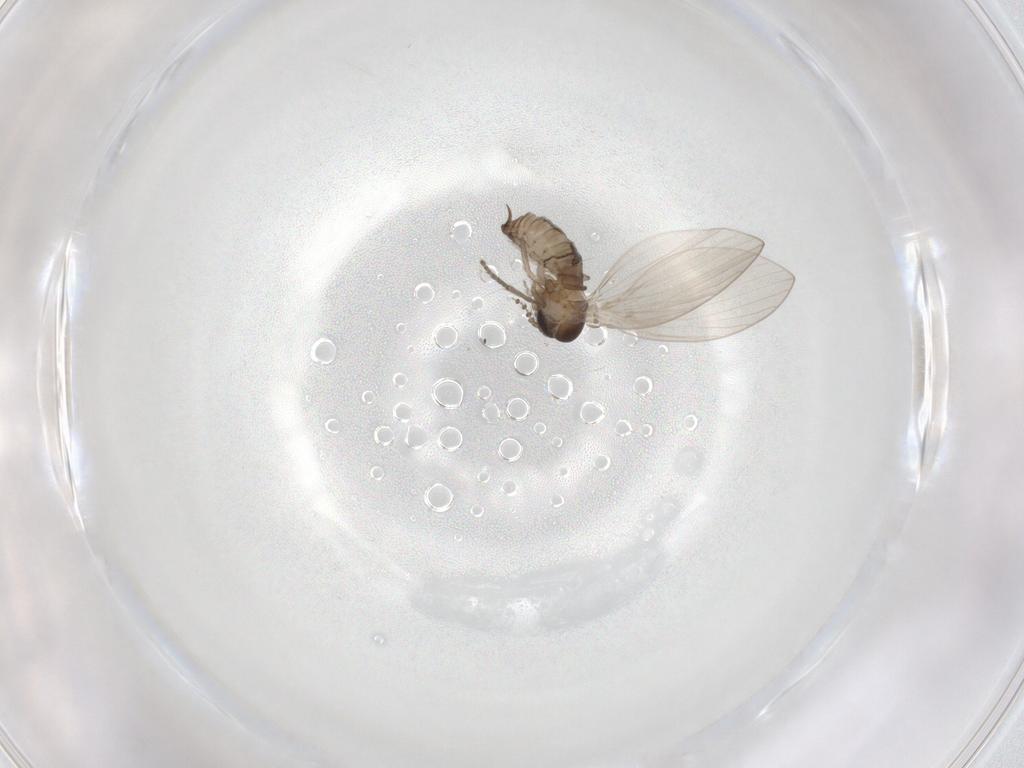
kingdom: Animalia
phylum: Arthropoda
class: Insecta
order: Diptera
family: Psychodidae
